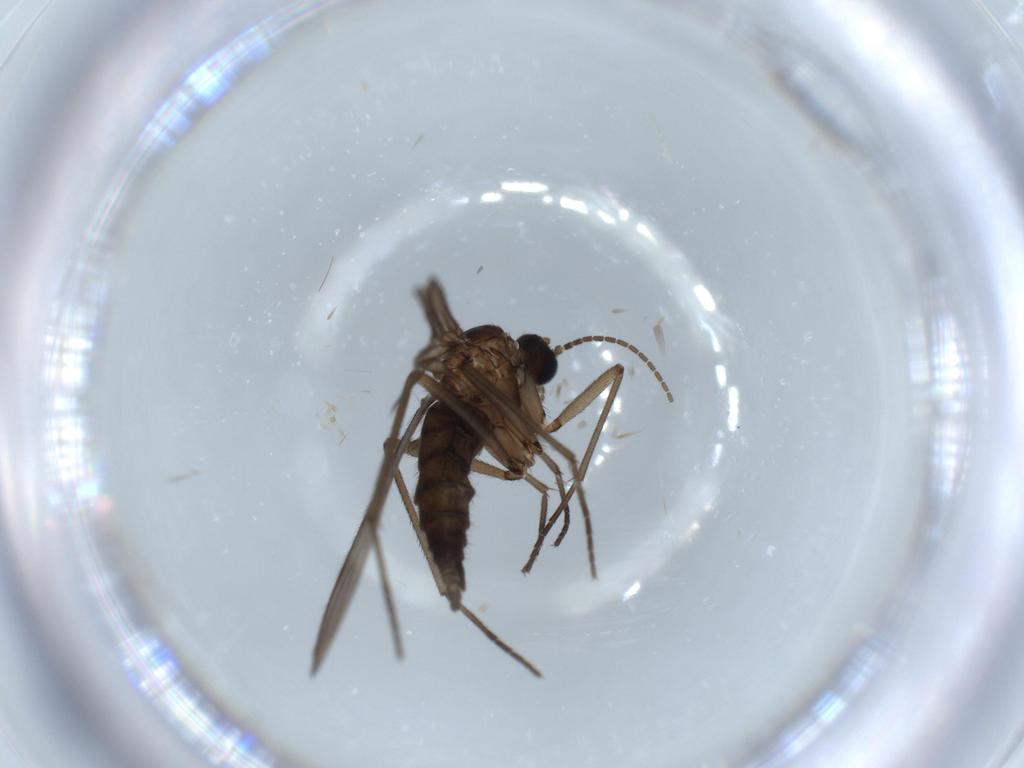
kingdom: Animalia
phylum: Arthropoda
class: Insecta
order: Diptera
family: Sciaridae
